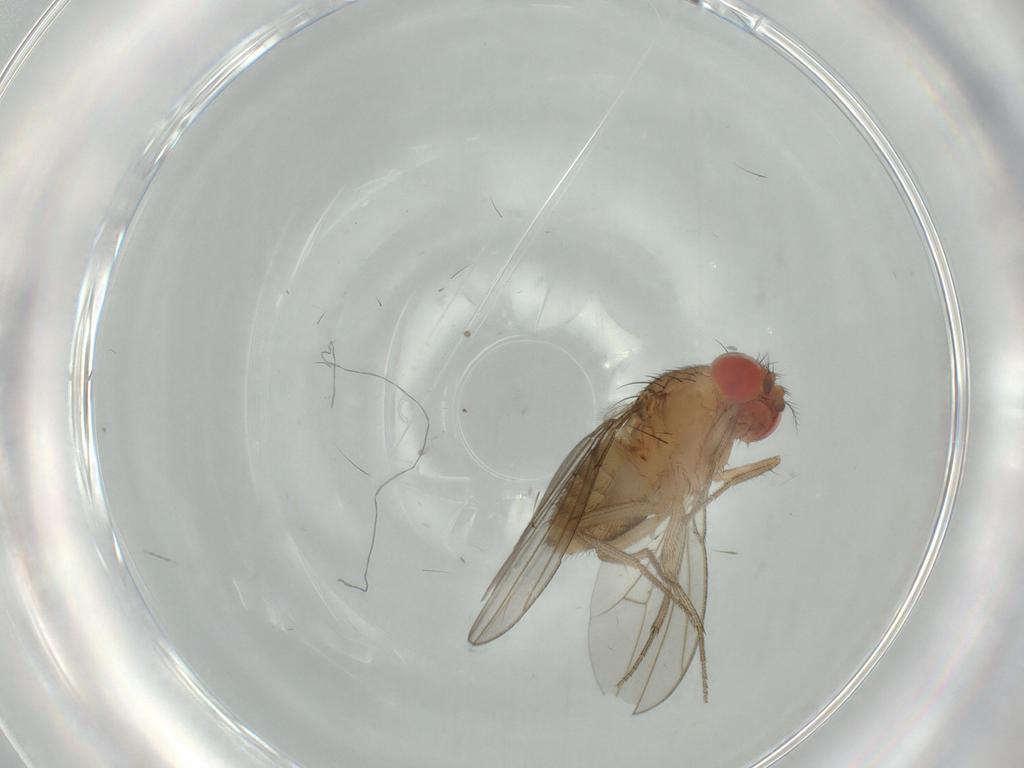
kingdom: Animalia
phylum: Arthropoda
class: Insecta
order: Diptera
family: Drosophilidae
